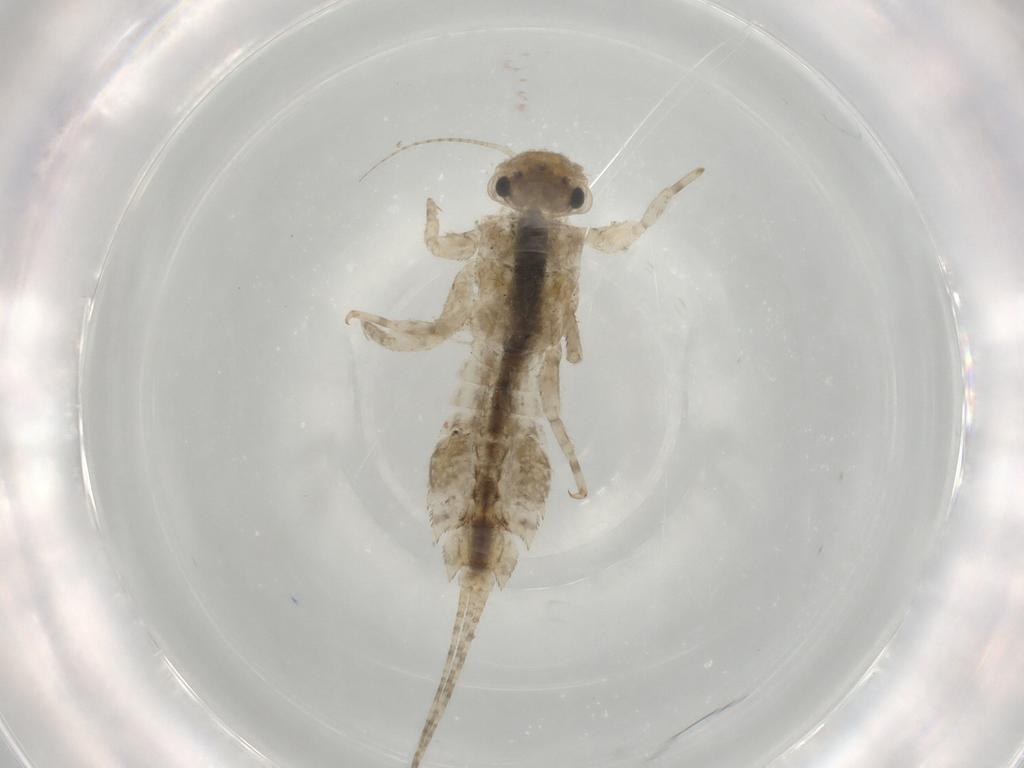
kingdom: Animalia
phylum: Arthropoda
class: Insecta
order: Ephemeroptera
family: Ephemerellidae
